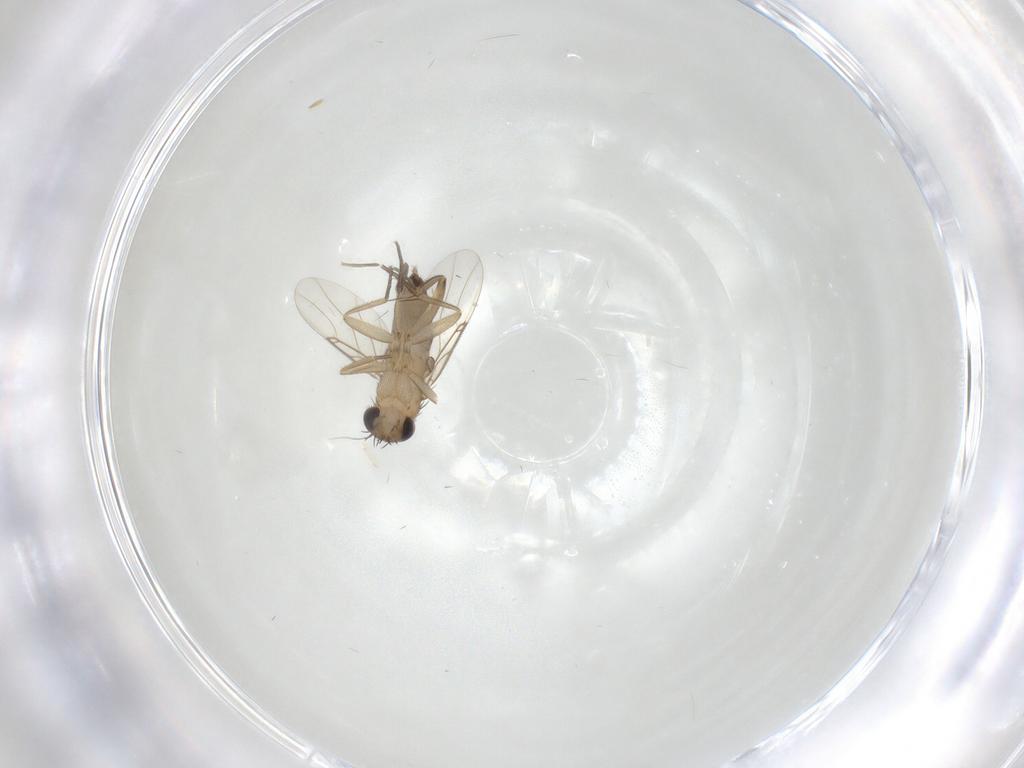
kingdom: Animalia
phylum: Arthropoda
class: Insecta
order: Diptera
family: Phoridae
